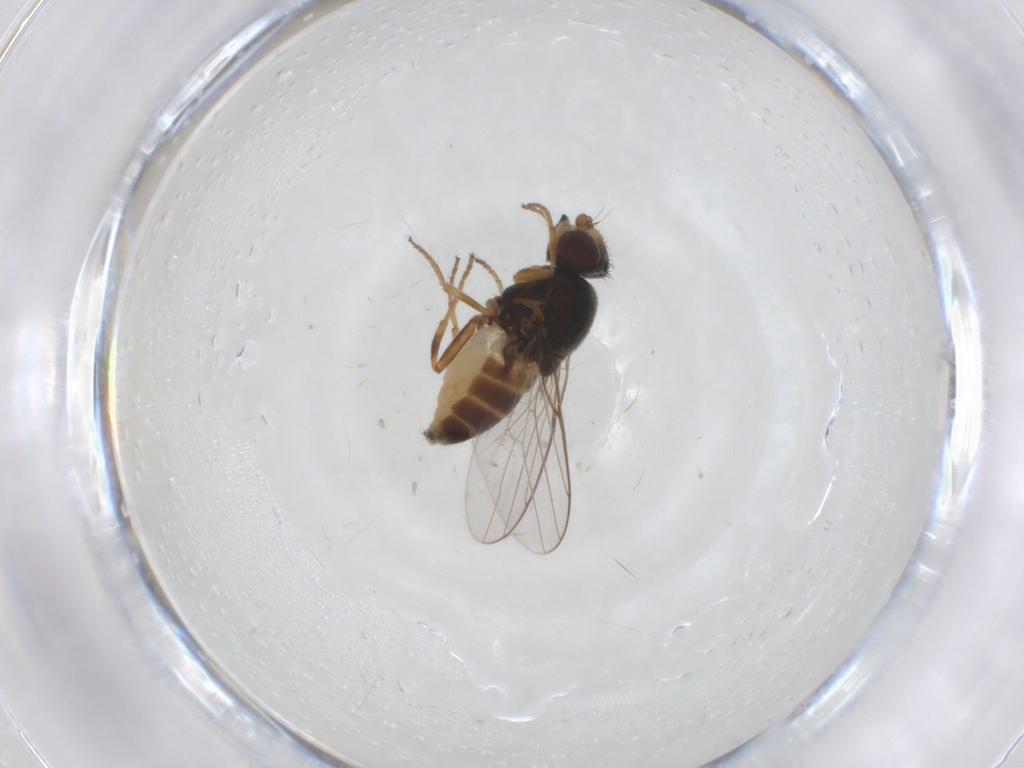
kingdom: Animalia
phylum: Arthropoda
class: Insecta
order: Diptera
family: Chloropidae
